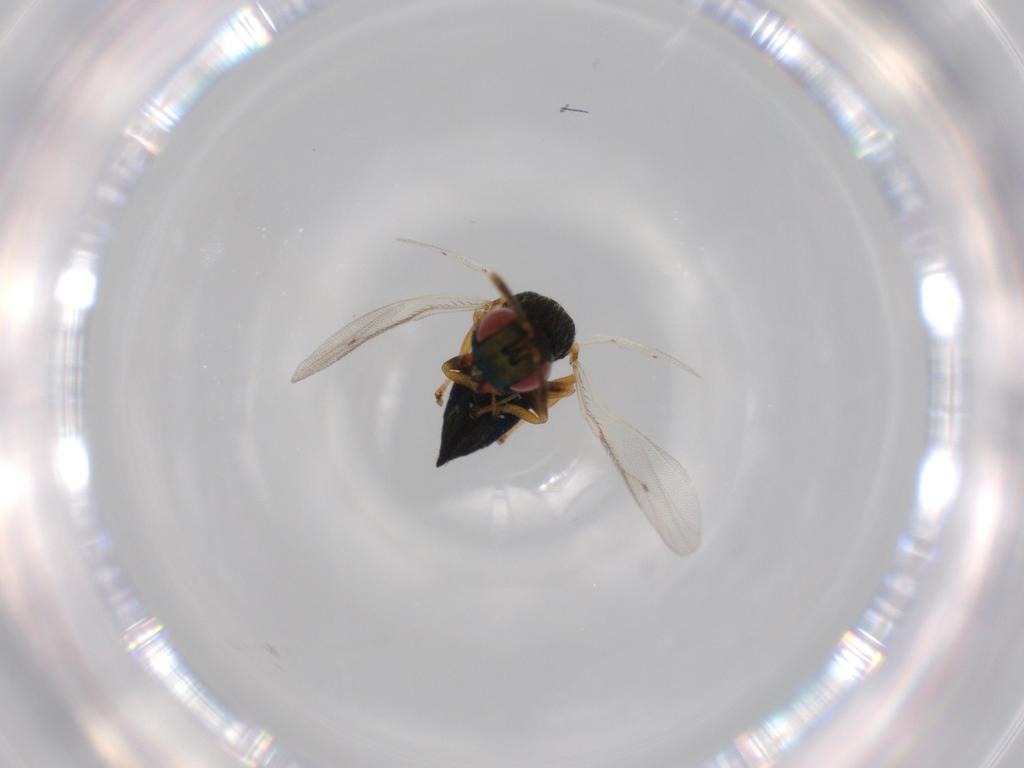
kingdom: Animalia
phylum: Arthropoda
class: Insecta
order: Hymenoptera
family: Pteromalidae
